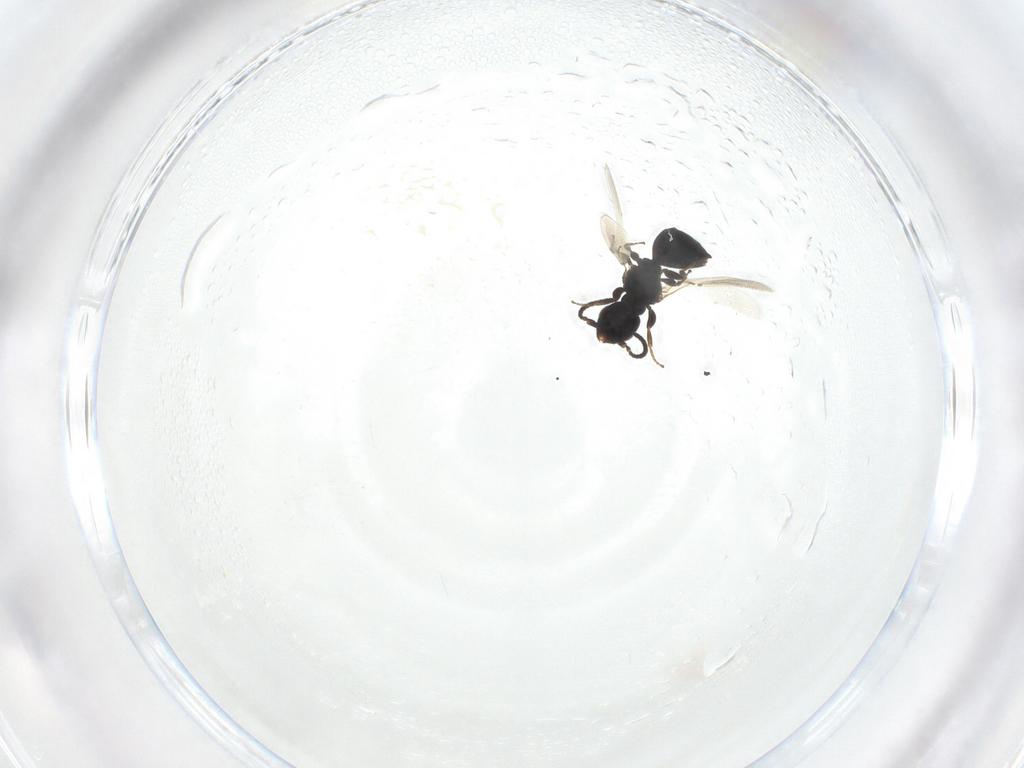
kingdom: Animalia
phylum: Arthropoda
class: Insecta
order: Hymenoptera
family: Bethylidae
